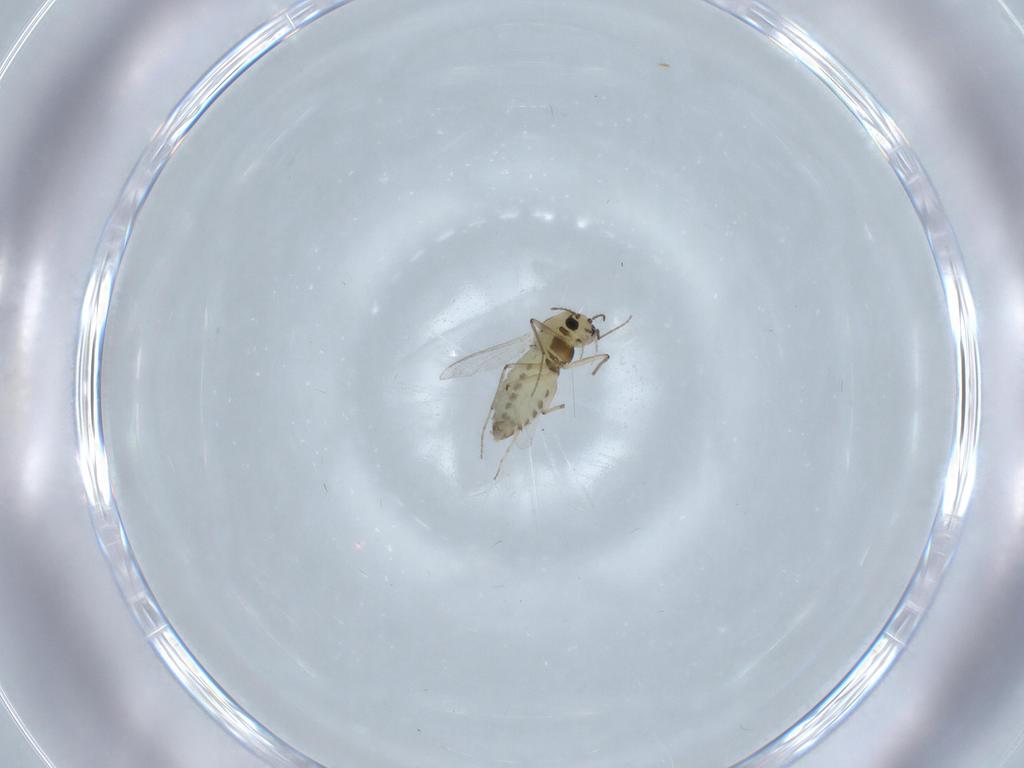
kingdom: Animalia
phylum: Arthropoda
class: Insecta
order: Diptera
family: Chironomidae
